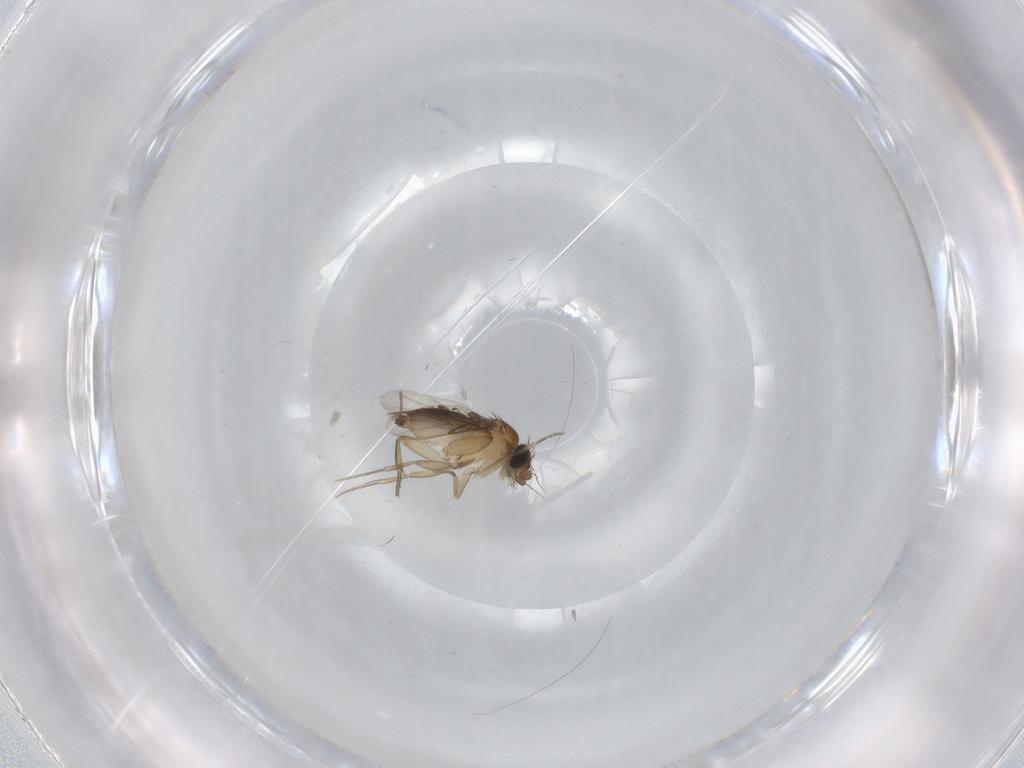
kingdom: Animalia
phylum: Arthropoda
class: Insecta
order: Diptera
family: Phoridae
